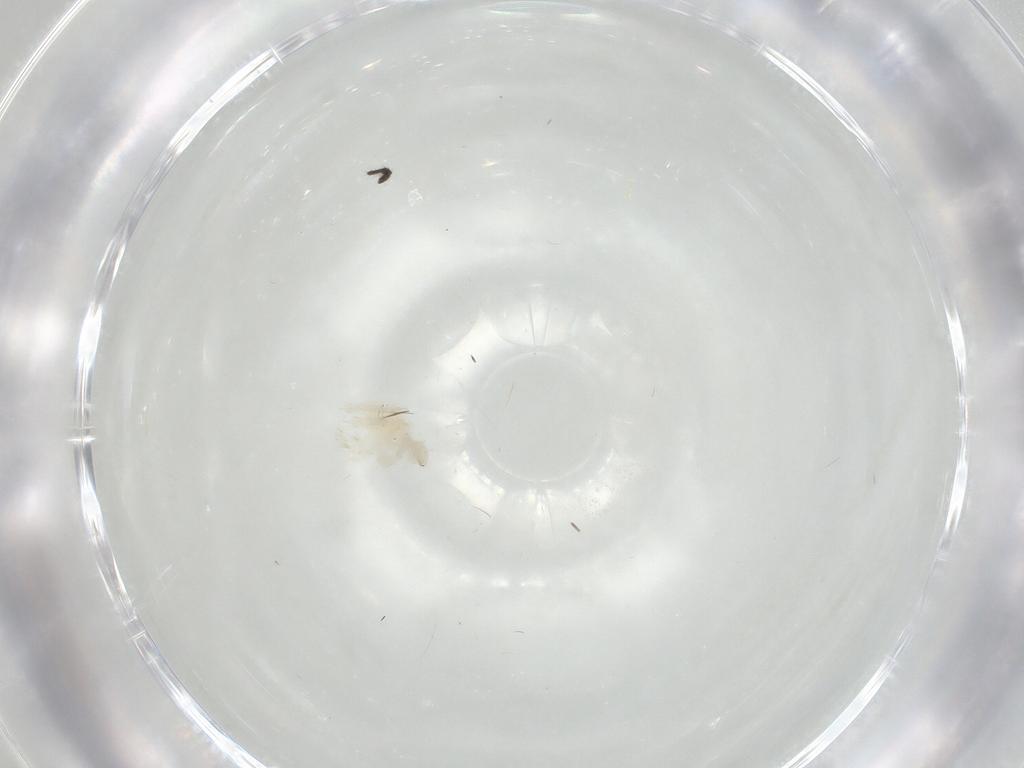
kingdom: Animalia
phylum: Arthropoda
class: Arachnida
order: Trombidiformes
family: Anystidae
